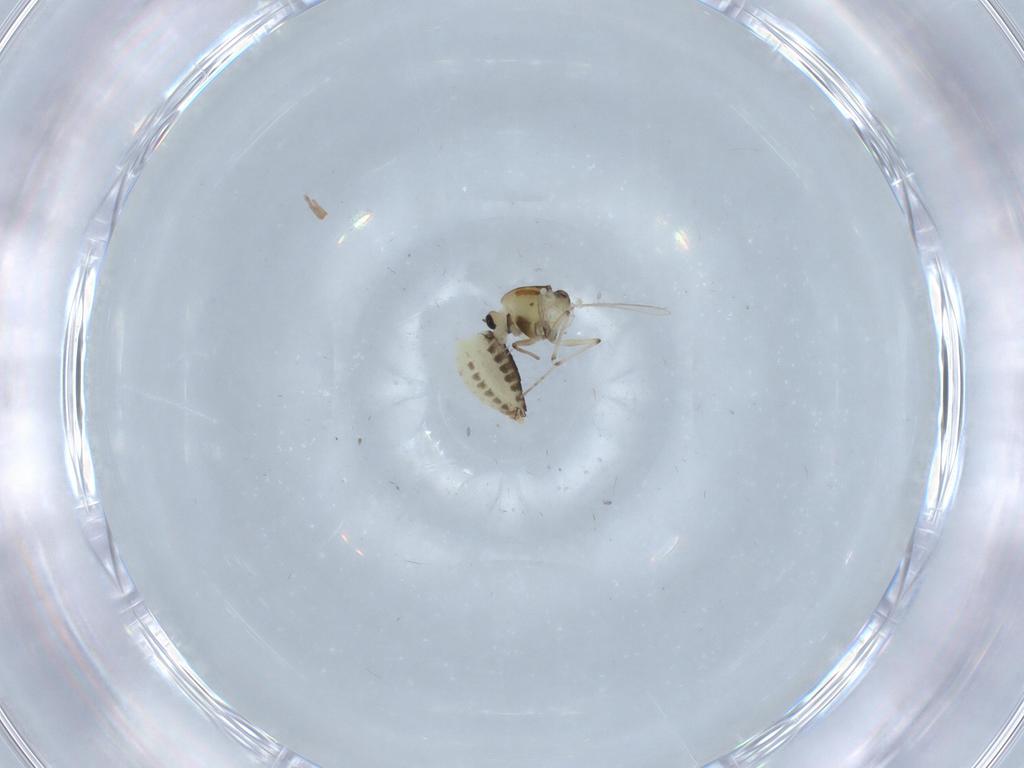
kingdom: Animalia
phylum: Arthropoda
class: Insecta
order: Diptera
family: Chironomidae
